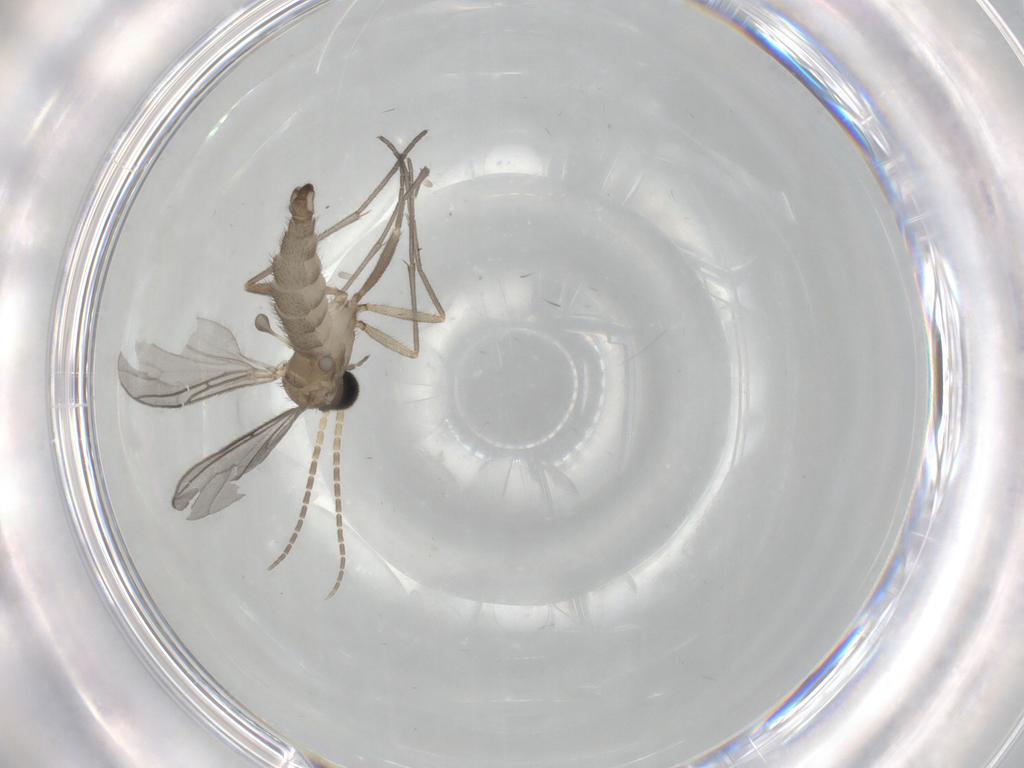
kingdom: Animalia
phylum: Arthropoda
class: Insecta
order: Diptera
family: Sciaridae
